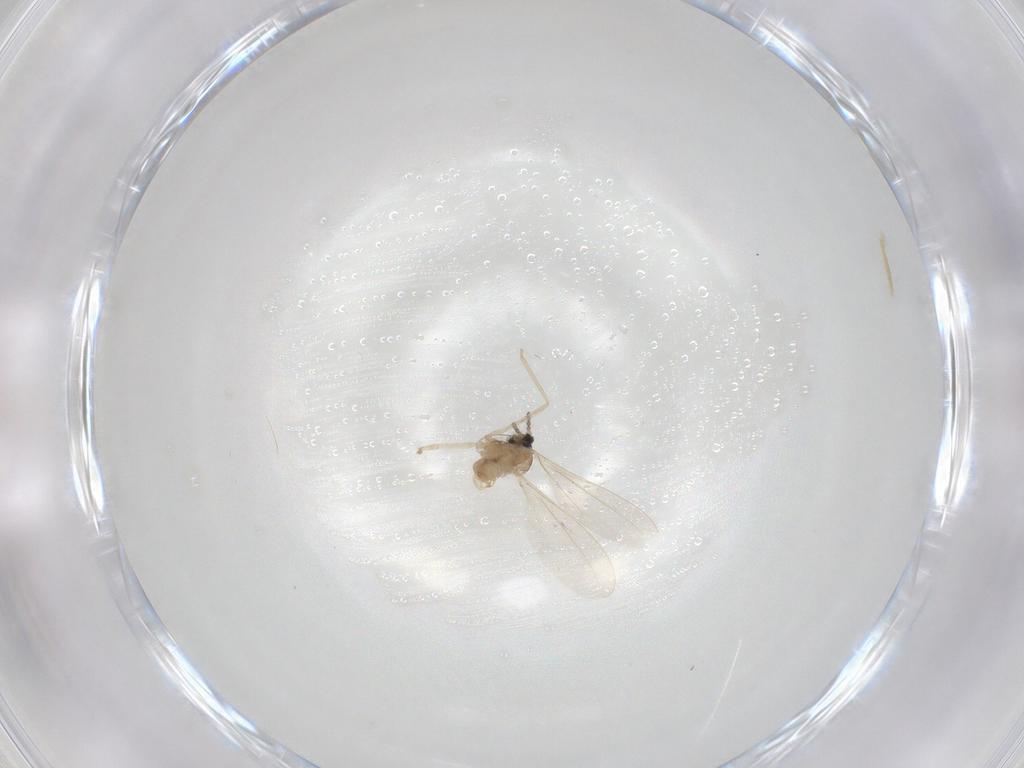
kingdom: Animalia
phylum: Arthropoda
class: Insecta
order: Diptera
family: Cecidomyiidae
